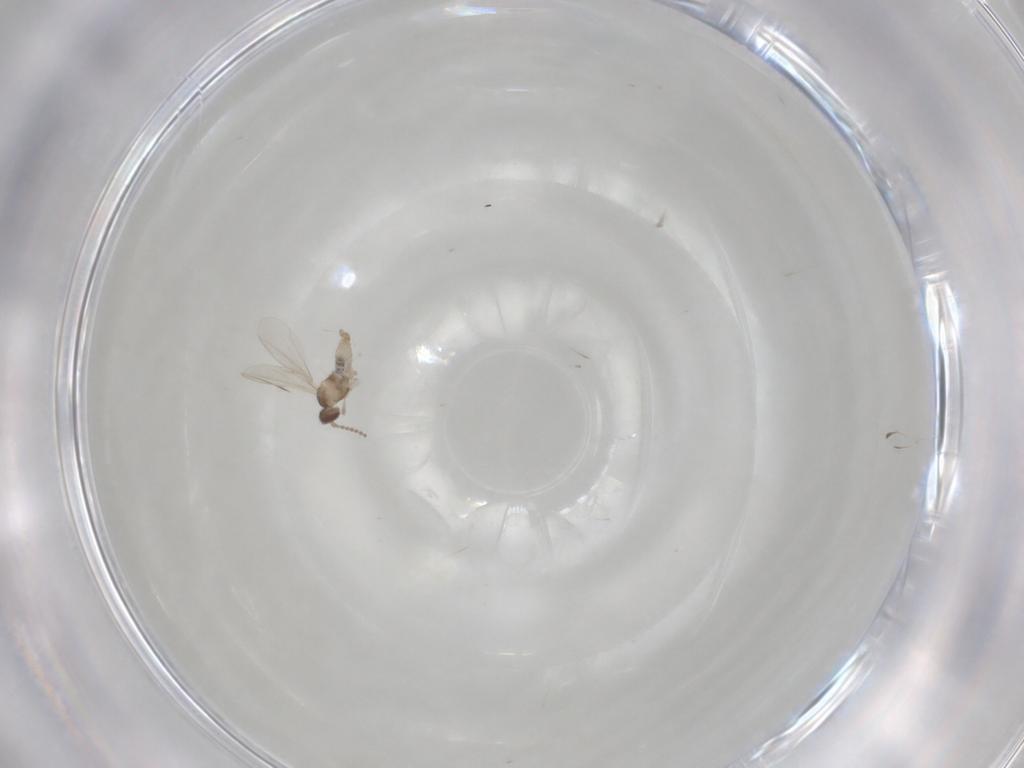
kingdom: Animalia
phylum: Arthropoda
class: Insecta
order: Diptera
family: Cecidomyiidae
